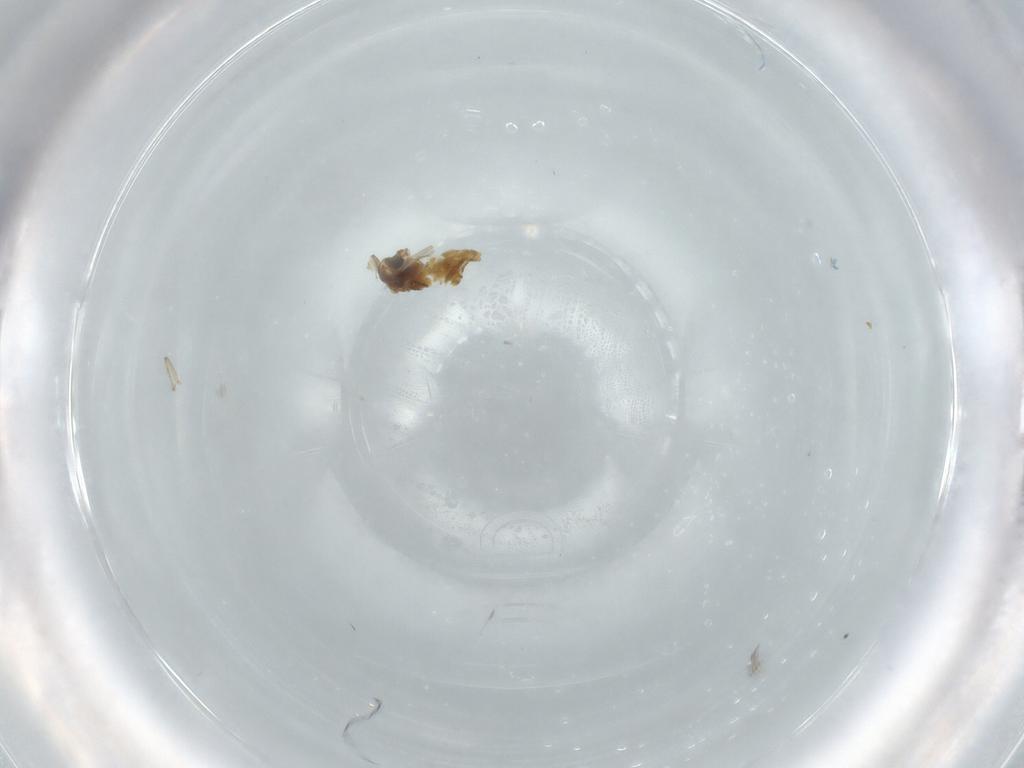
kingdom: Animalia
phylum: Arthropoda
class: Insecta
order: Diptera
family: Chironomidae
